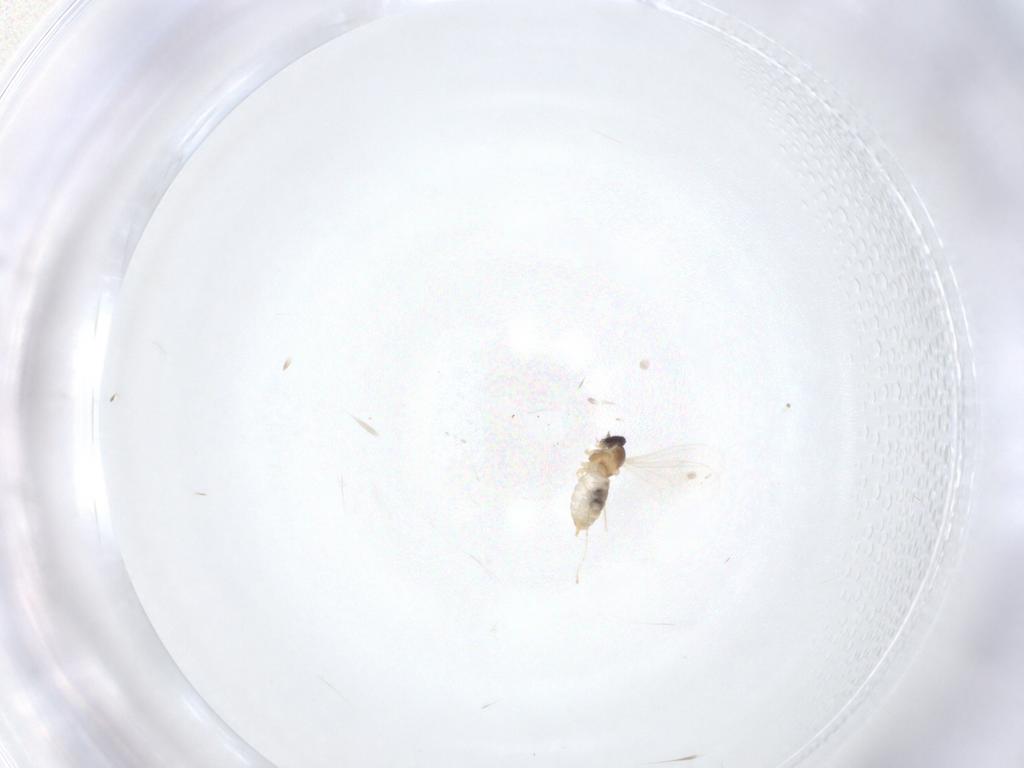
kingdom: Animalia
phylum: Arthropoda
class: Insecta
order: Diptera
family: Cecidomyiidae
